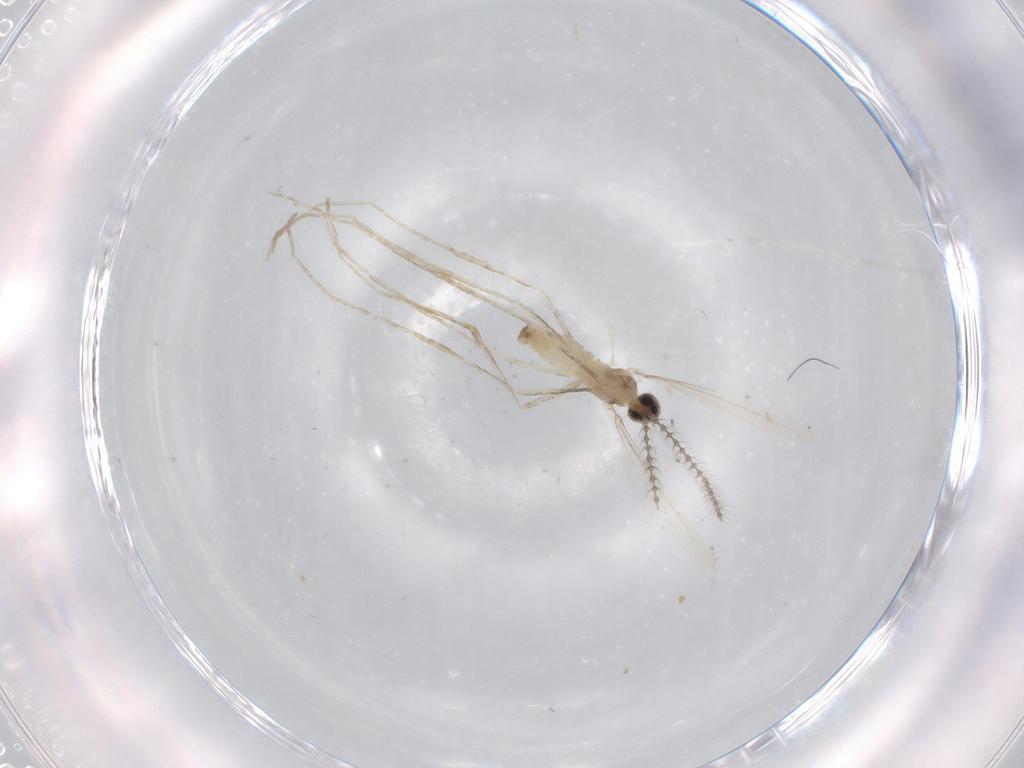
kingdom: Animalia
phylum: Arthropoda
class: Insecta
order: Diptera
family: Cecidomyiidae
